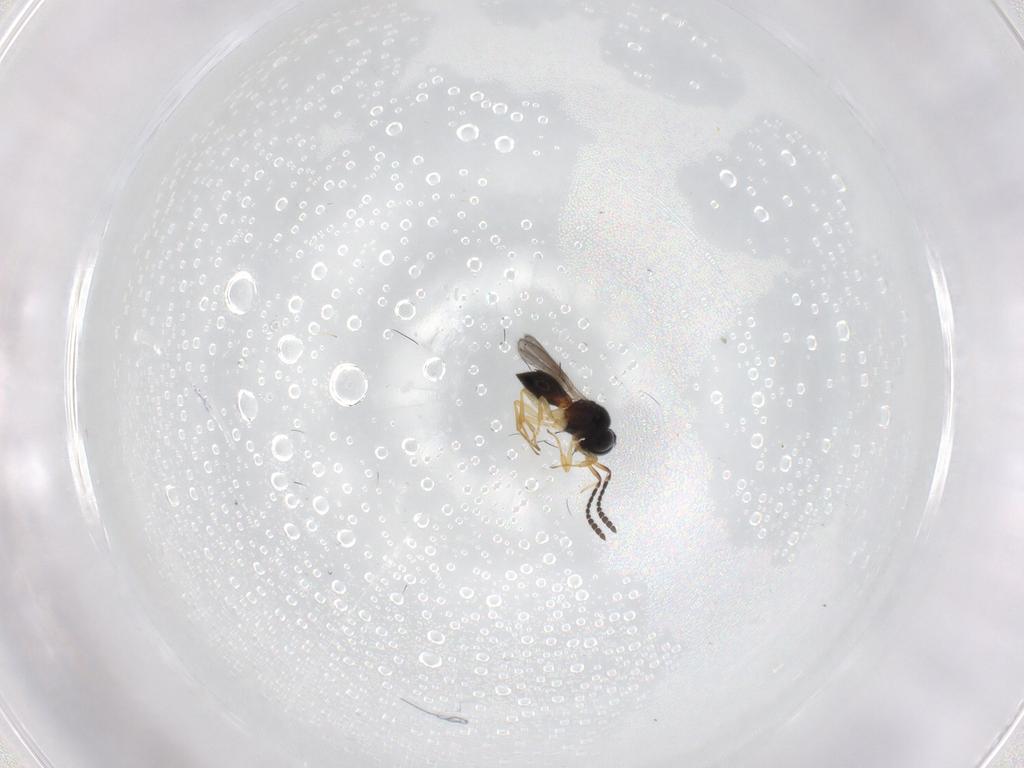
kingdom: Animalia
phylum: Arthropoda
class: Insecta
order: Hymenoptera
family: Scelionidae
